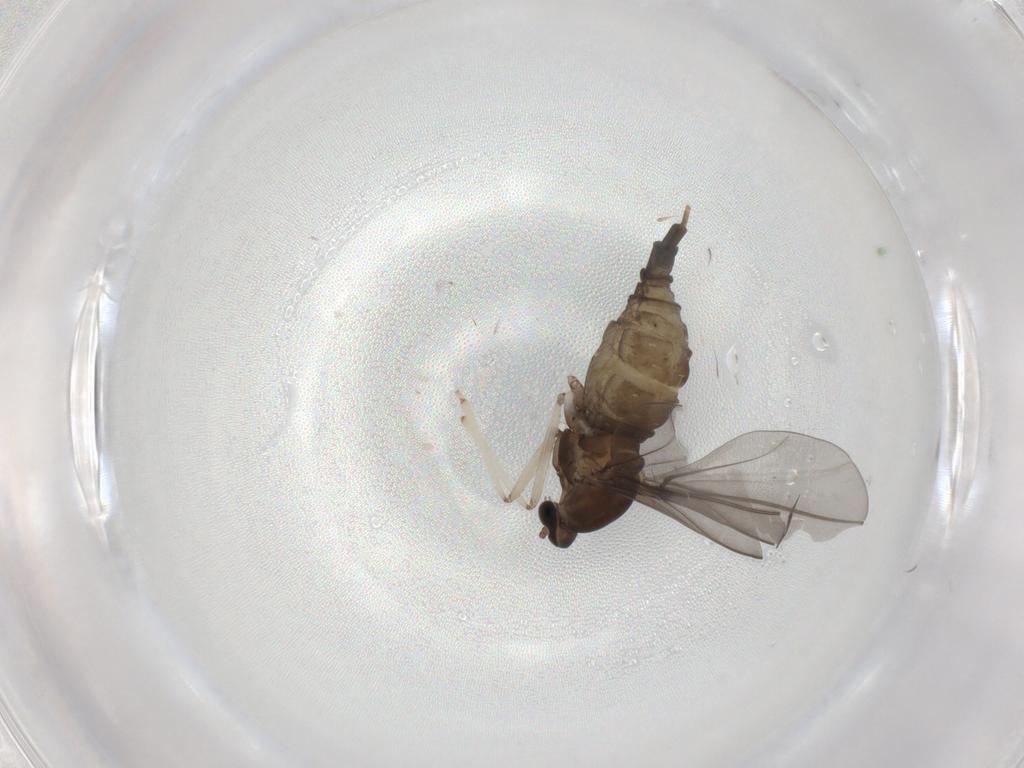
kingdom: Animalia
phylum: Arthropoda
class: Insecta
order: Diptera
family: Cecidomyiidae
